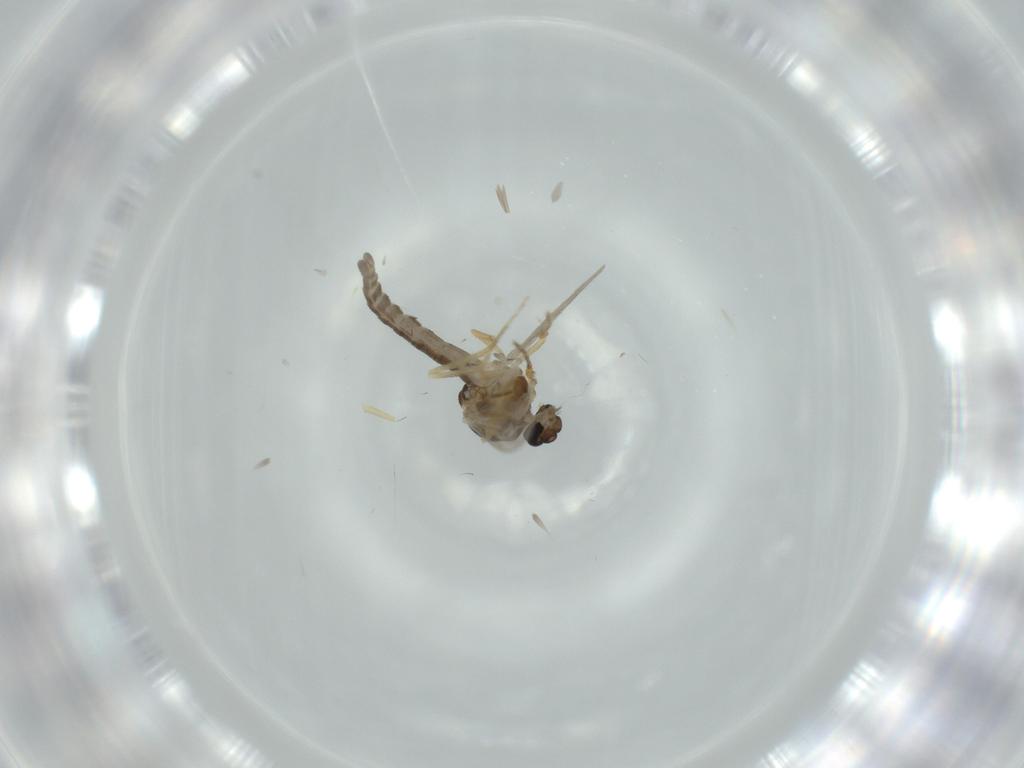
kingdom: Animalia
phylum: Arthropoda
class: Insecta
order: Diptera
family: Ceratopogonidae
